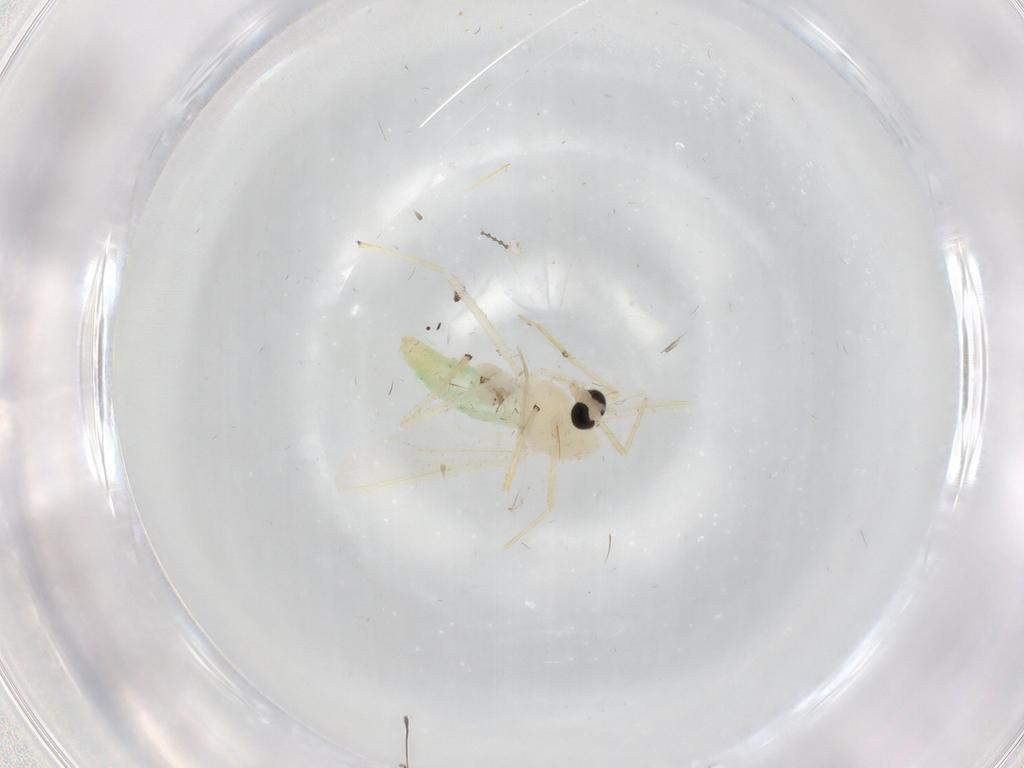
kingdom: Animalia
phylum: Arthropoda
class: Insecta
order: Diptera
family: Chironomidae
